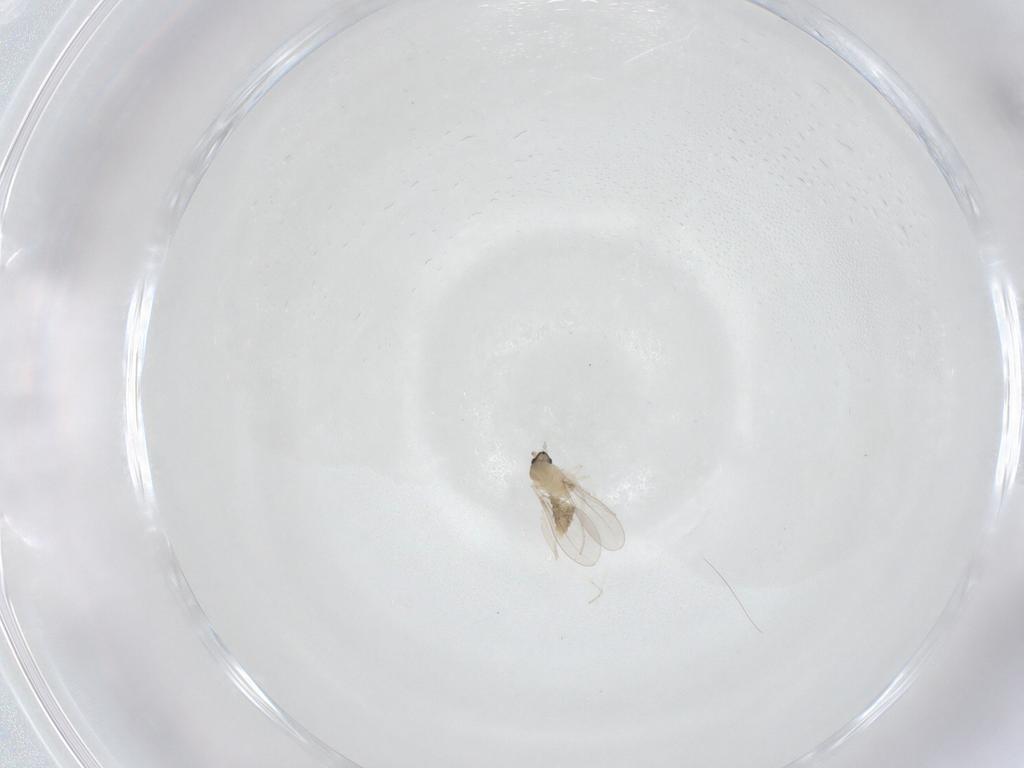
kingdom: Animalia
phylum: Arthropoda
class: Insecta
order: Diptera
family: Cecidomyiidae
